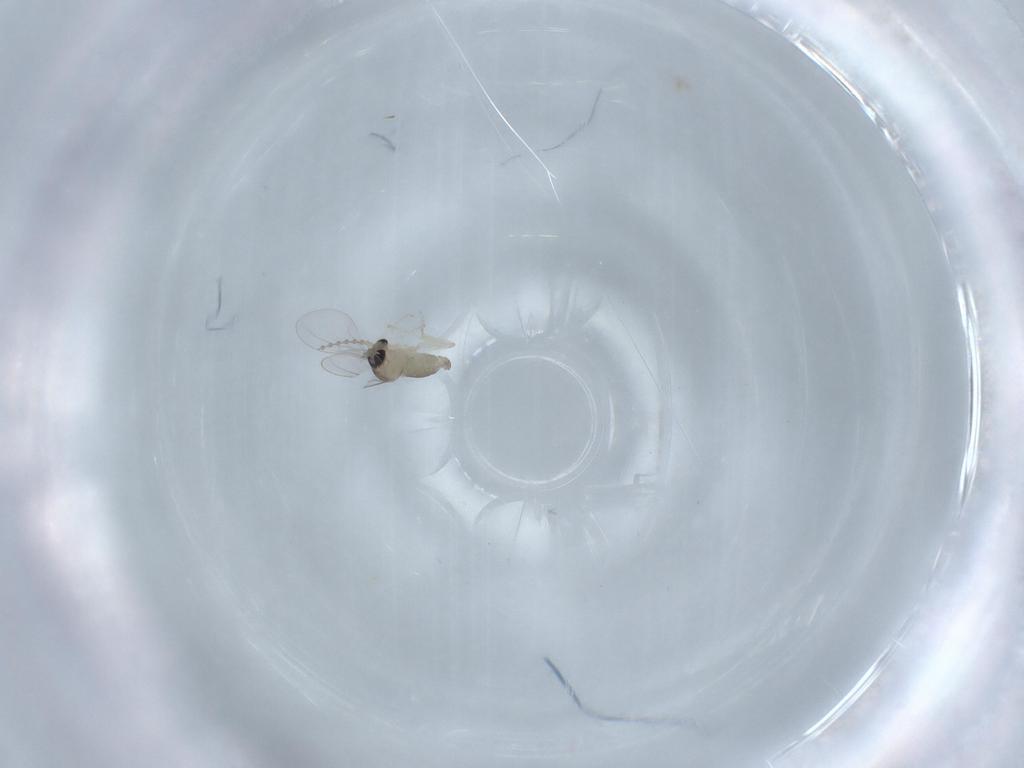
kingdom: Animalia
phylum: Arthropoda
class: Insecta
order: Diptera
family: Cecidomyiidae
